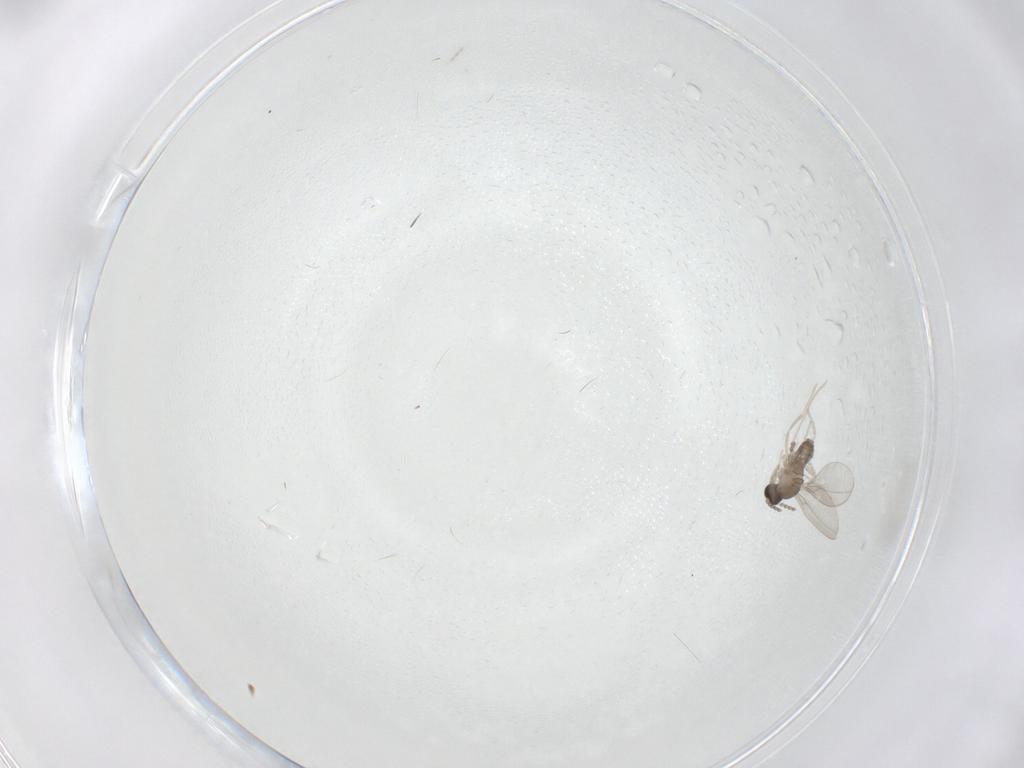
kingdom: Animalia
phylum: Arthropoda
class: Insecta
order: Diptera
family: Cecidomyiidae
